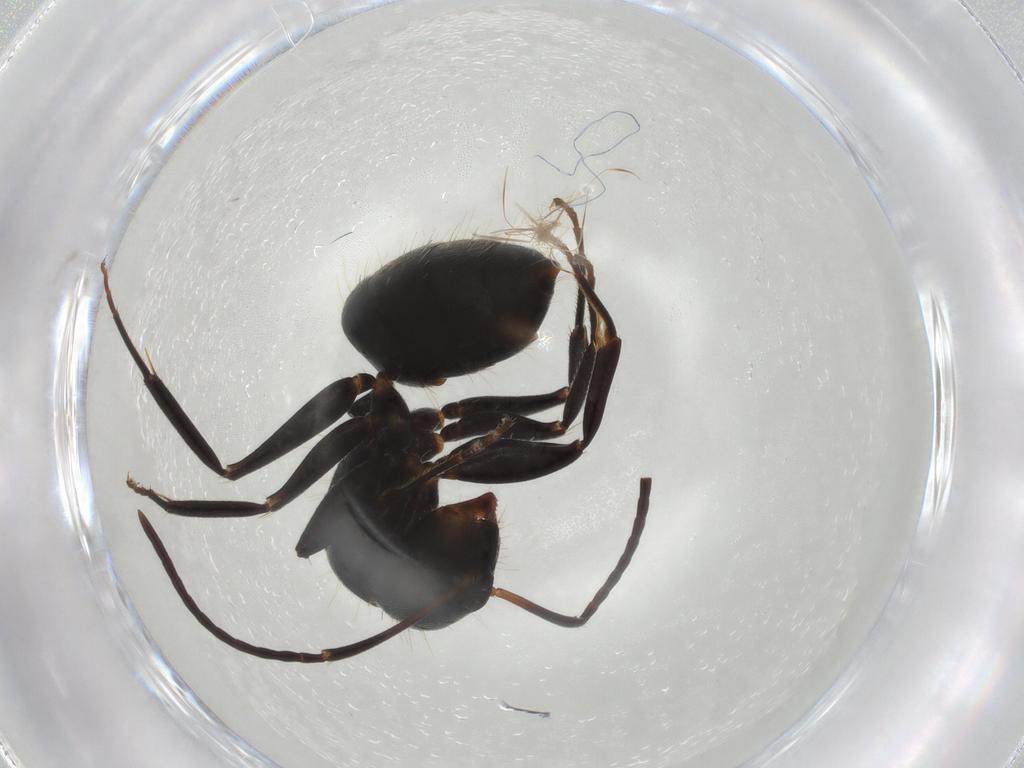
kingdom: Animalia
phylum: Arthropoda
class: Insecta
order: Hymenoptera
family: Formicidae
